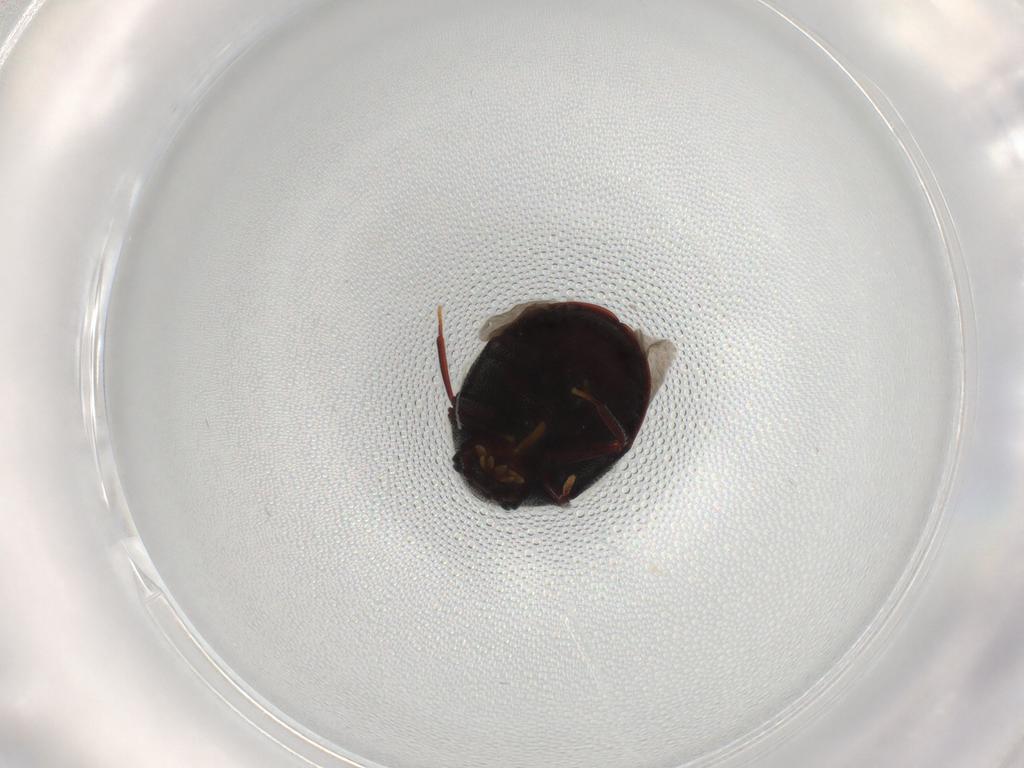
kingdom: Animalia
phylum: Arthropoda
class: Insecta
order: Coleoptera
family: Ptinidae
